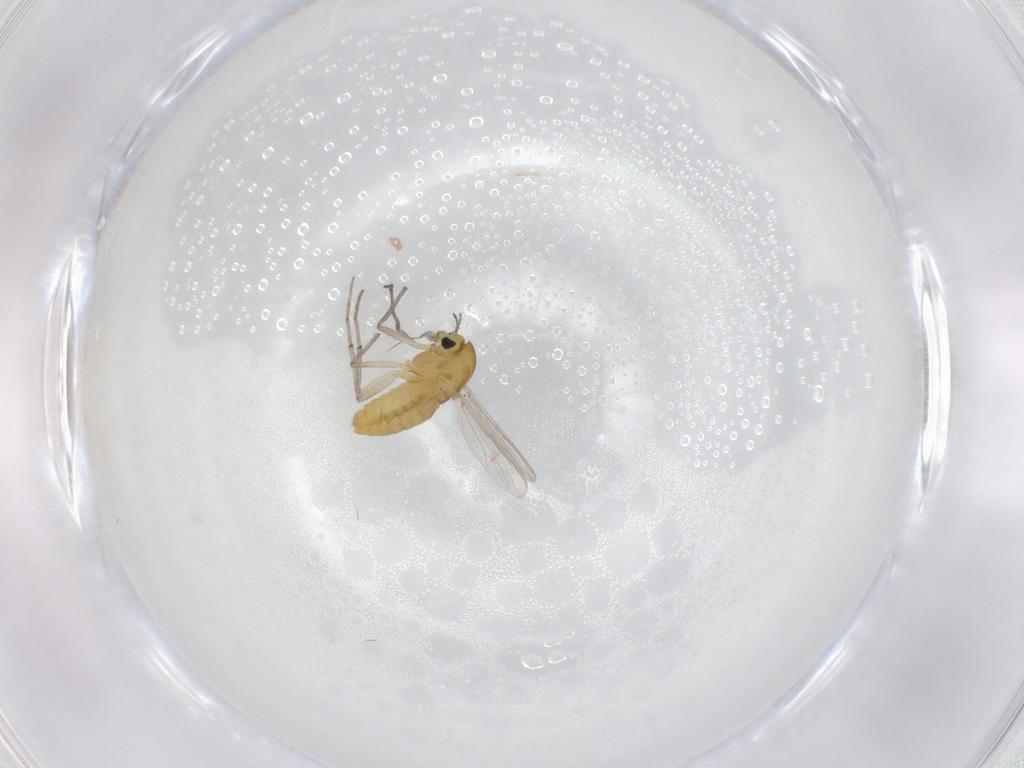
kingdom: Animalia
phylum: Arthropoda
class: Insecta
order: Diptera
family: Chironomidae
